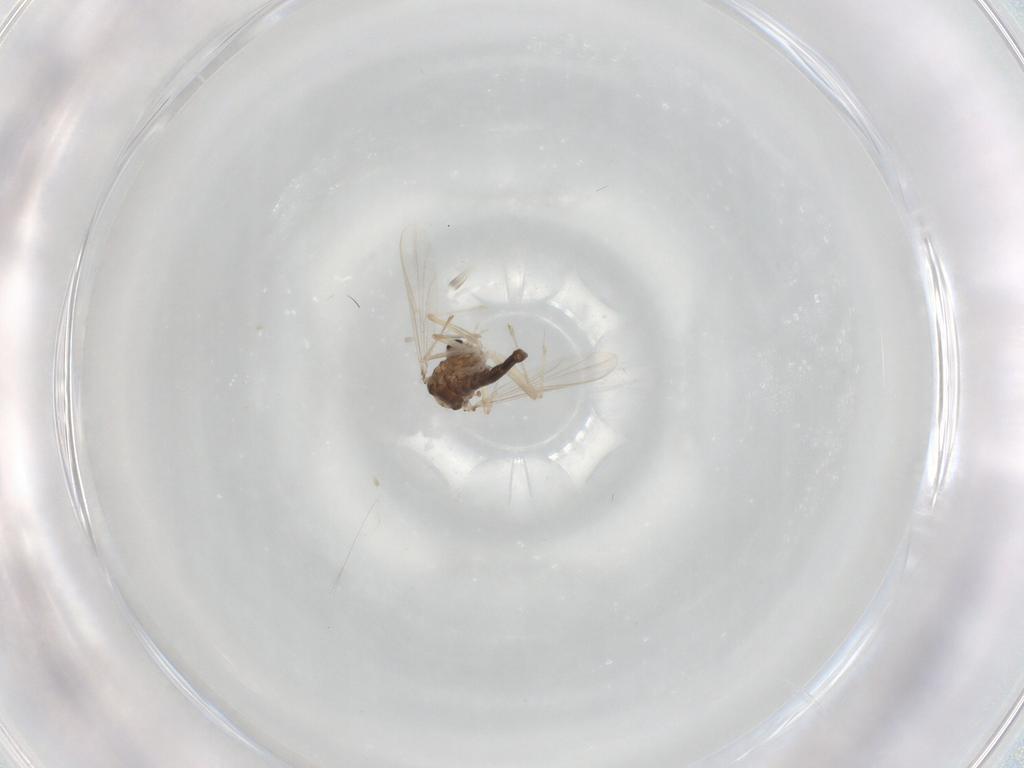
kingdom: Animalia
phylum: Arthropoda
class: Insecta
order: Diptera
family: Chironomidae
